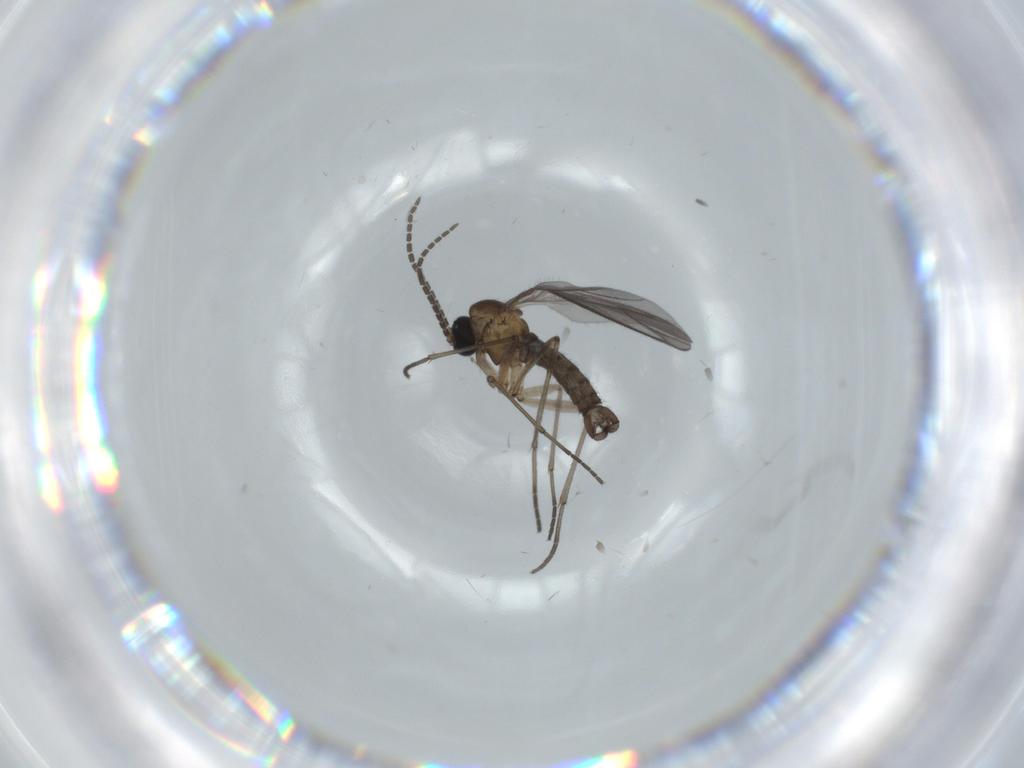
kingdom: Animalia
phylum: Arthropoda
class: Insecta
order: Diptera
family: Sciaridae
